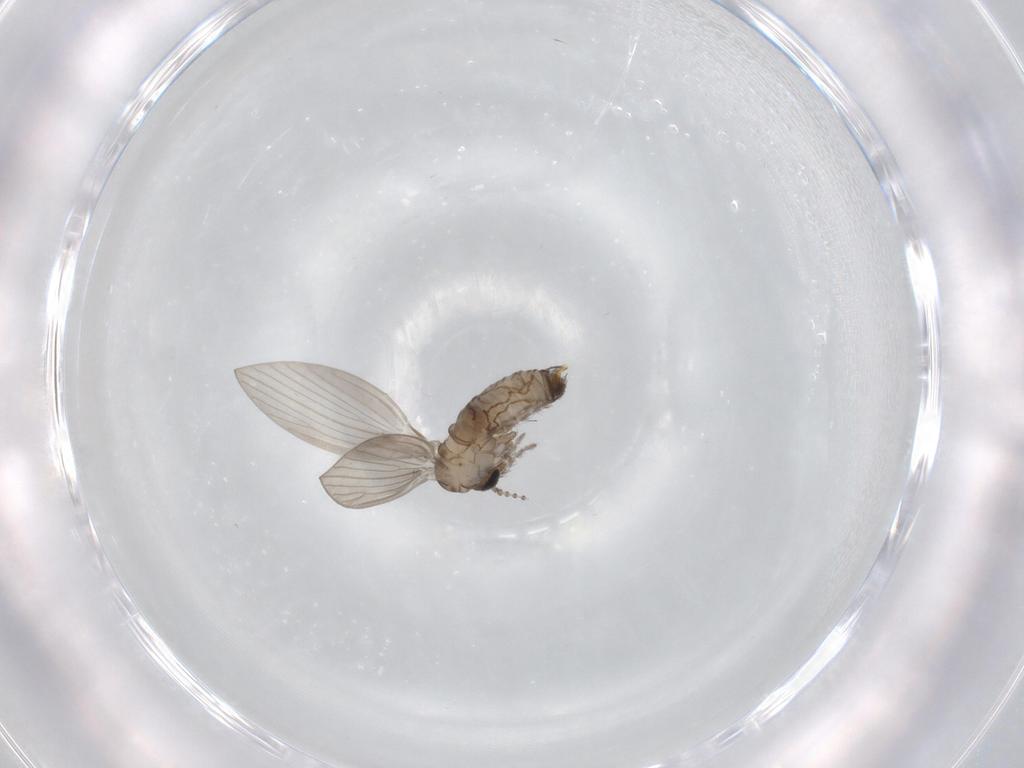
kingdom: Animalia
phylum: Arthropoda
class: Insecta
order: Diptera
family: Psychodidae
